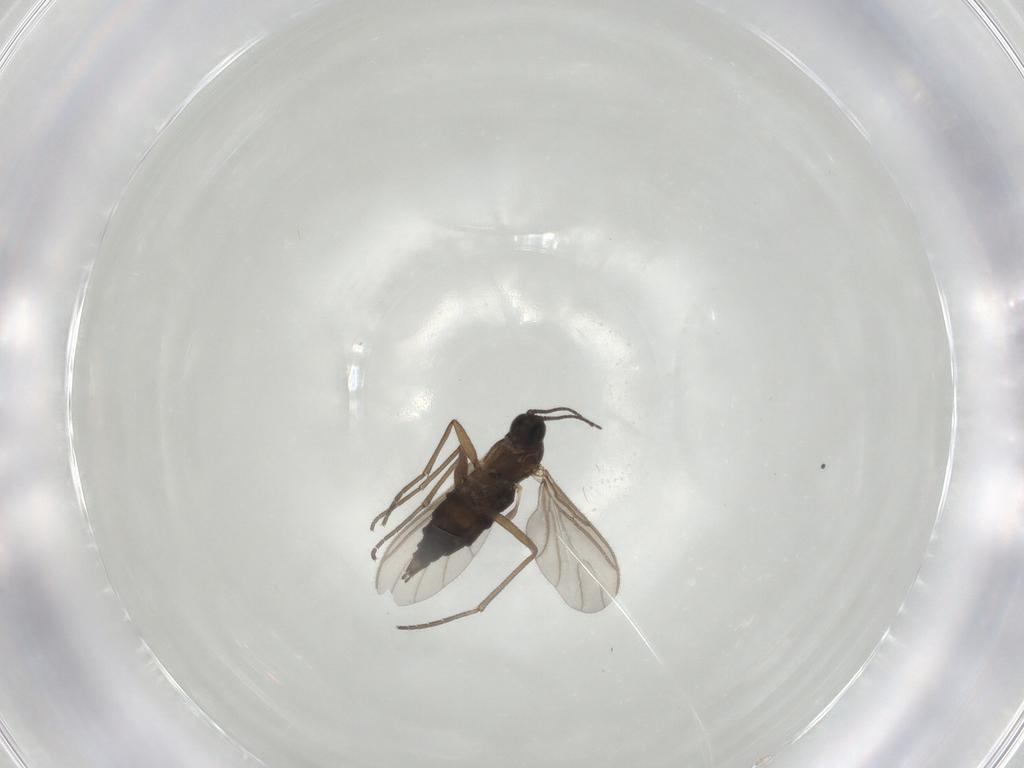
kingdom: Animalia
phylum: Arthropoda
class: Insecta
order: Diptera
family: Sciaridae
